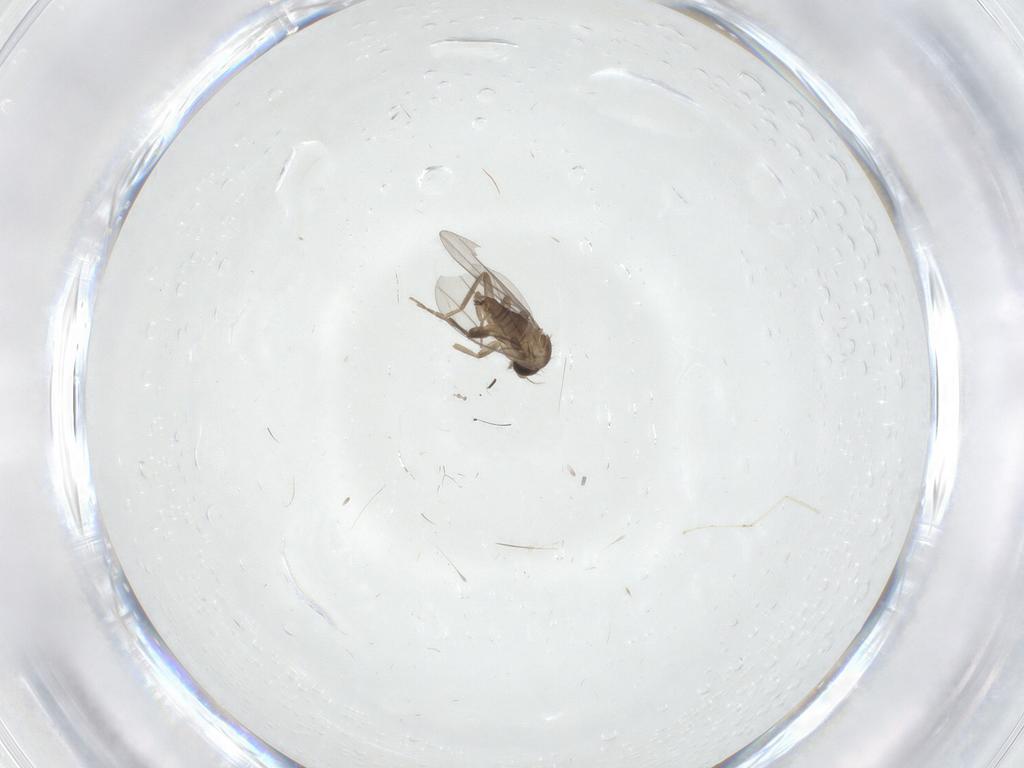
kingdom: Animalia
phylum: Arthropoda
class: Insecta
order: Diptera
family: Cecidomyiidae
